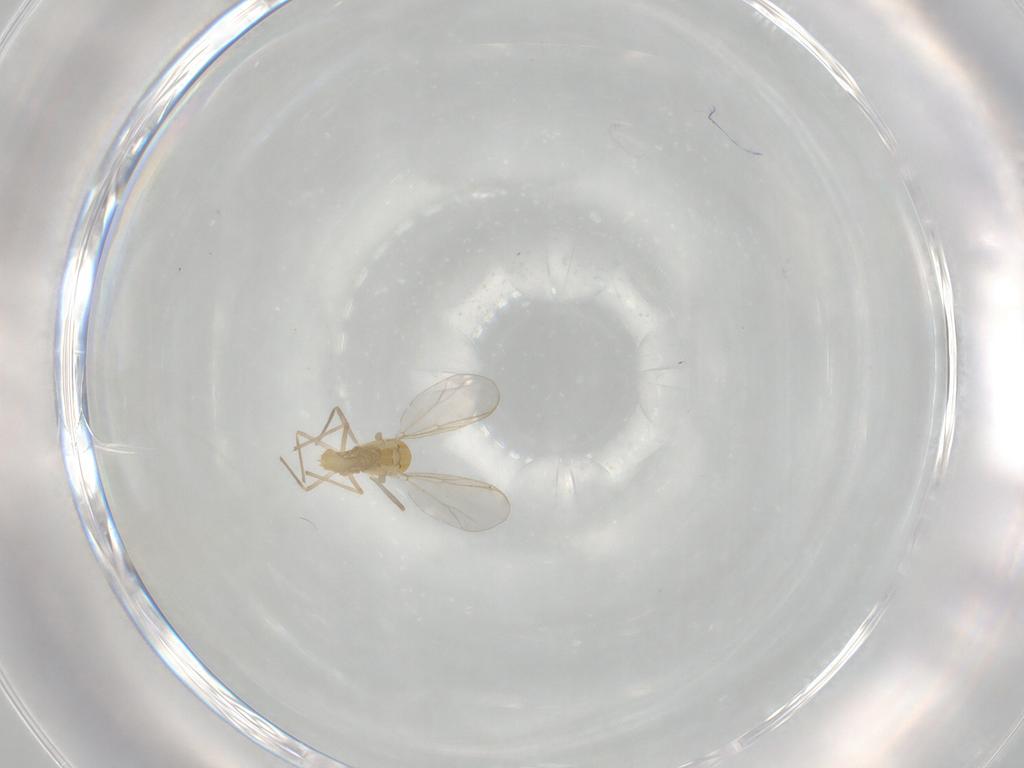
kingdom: Animalia
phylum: Arthropoda
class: Insecta
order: Diptera
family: Chironomidae
